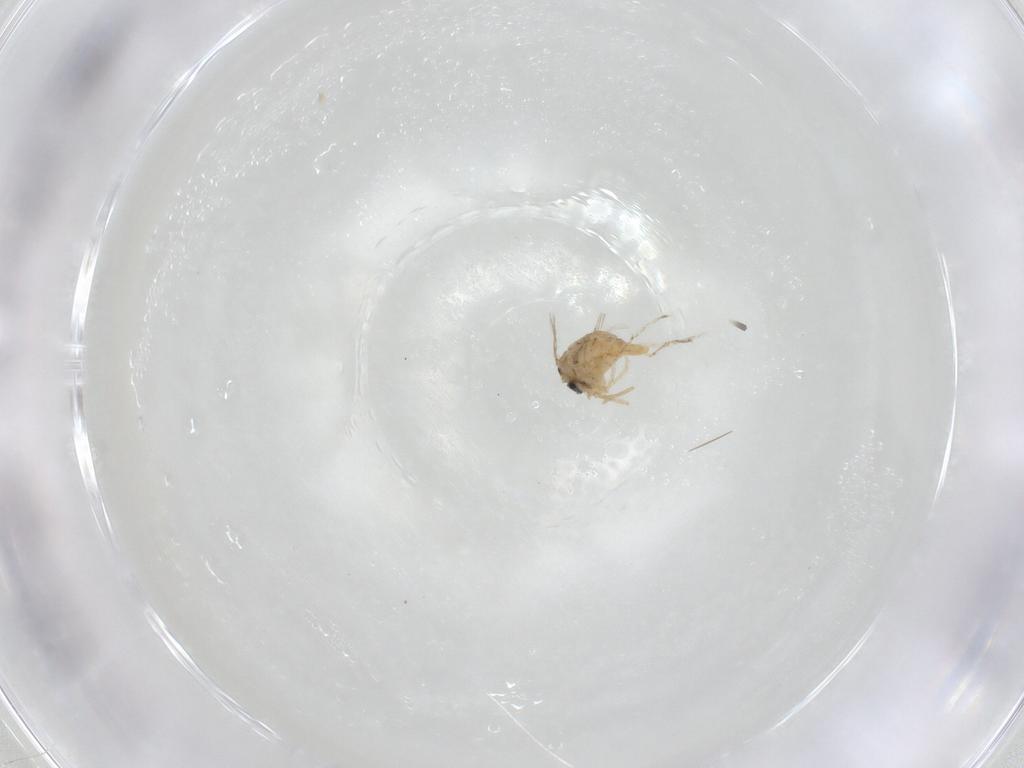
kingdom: Animalia
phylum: Arthropoda
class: Insecta
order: Diptera
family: Cecidomyiidae
